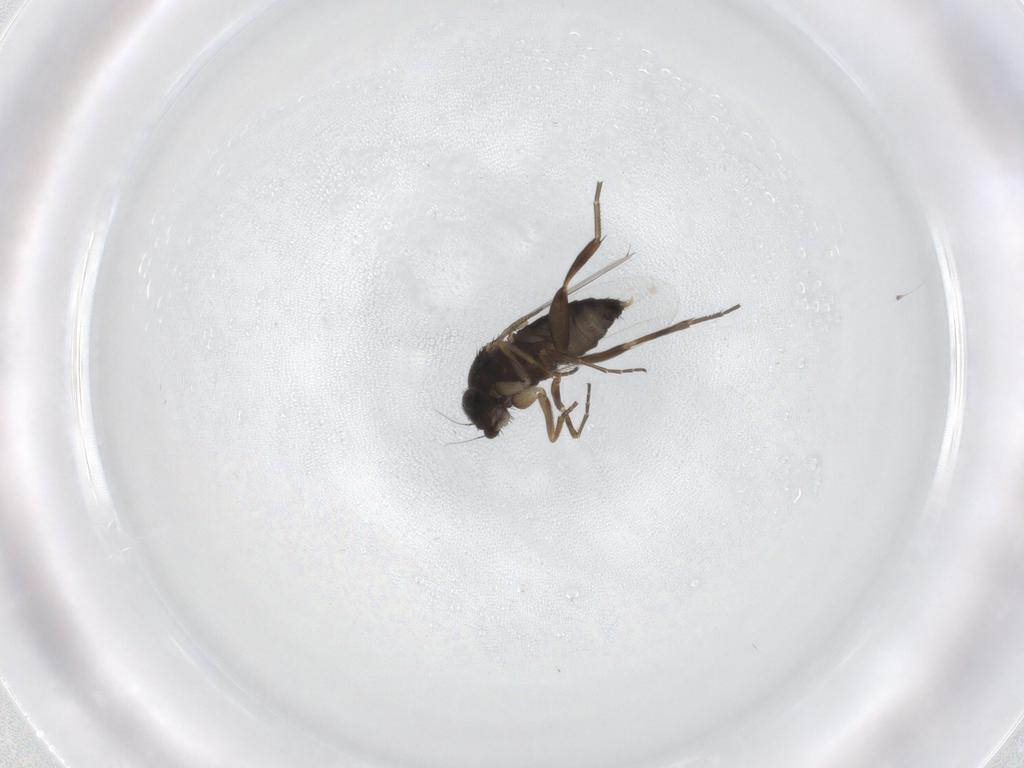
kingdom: Animalia
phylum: Arthropoda
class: Insecta
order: Diptera
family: Phoridae
